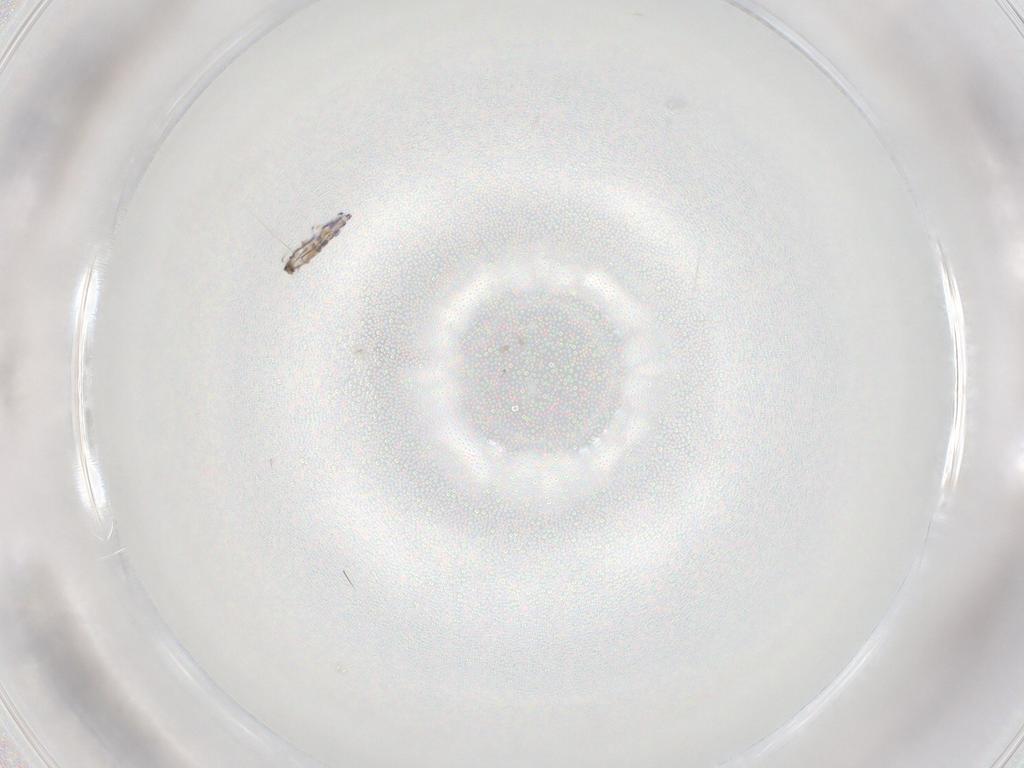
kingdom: Animalia
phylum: Arthropoda
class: Collembola
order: Entomobryomorpha
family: Entomobryidae
